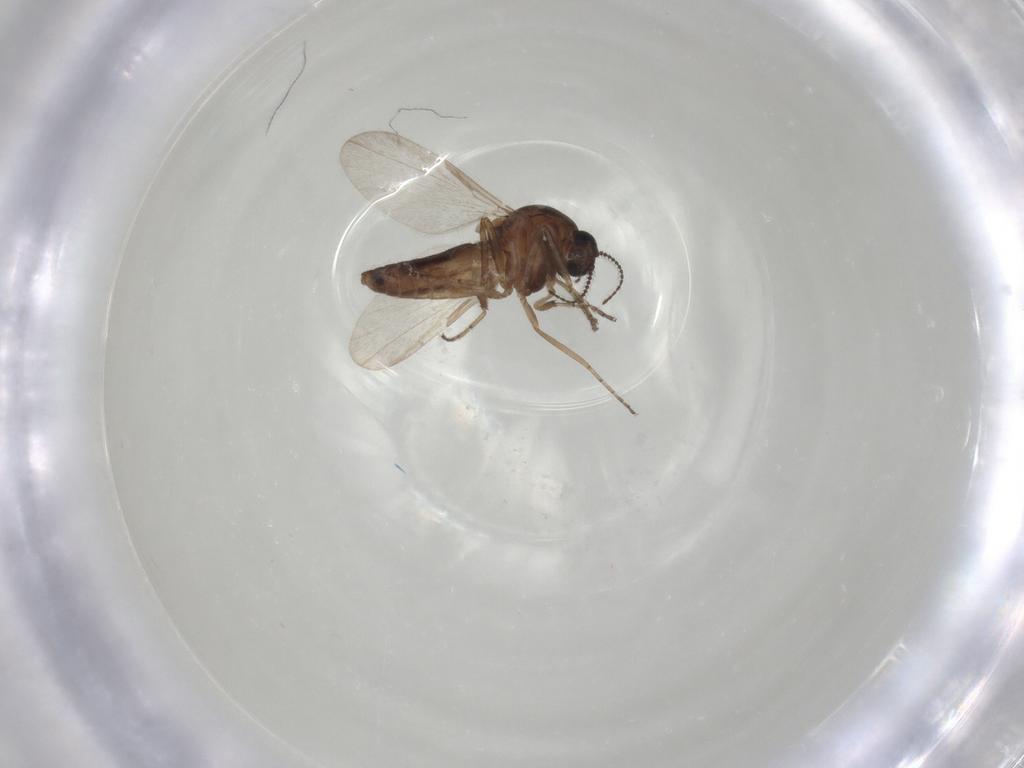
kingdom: Animalia
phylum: Arthropoda
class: Insecta
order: Diptera
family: Ceratopogonidae
